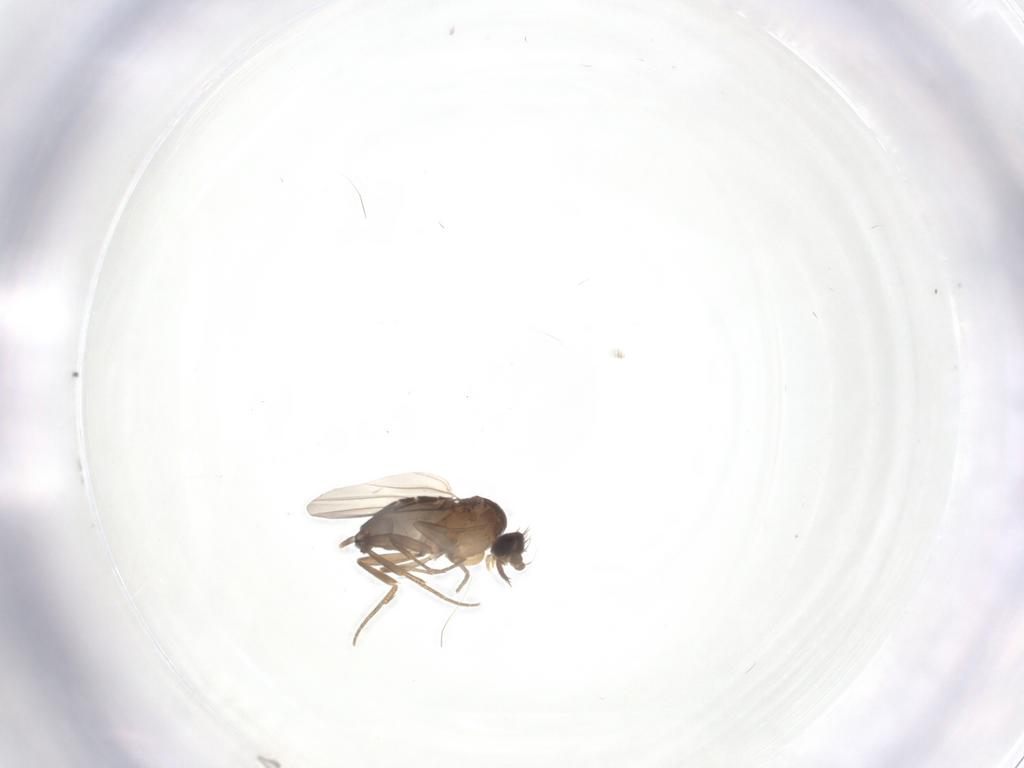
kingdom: Animalia
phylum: Arthropoda
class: Insecta
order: Diptera
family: Phoridae
